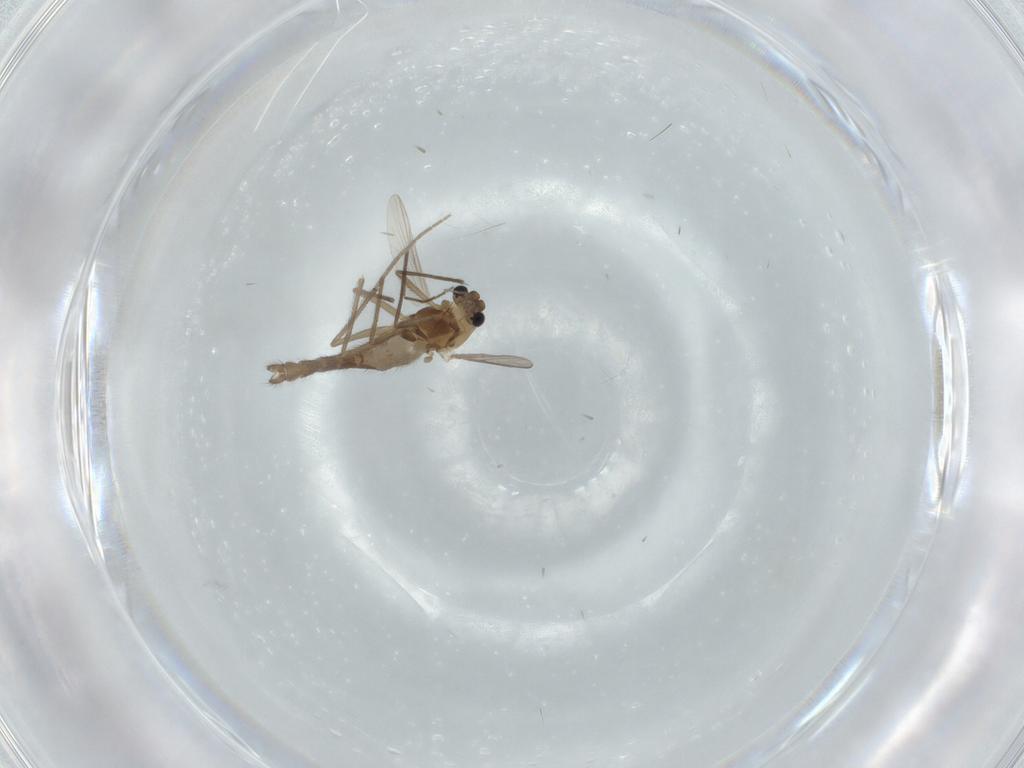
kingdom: Animalia
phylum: Arthropoda
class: Insecta
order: Diptera
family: Chironomidae
